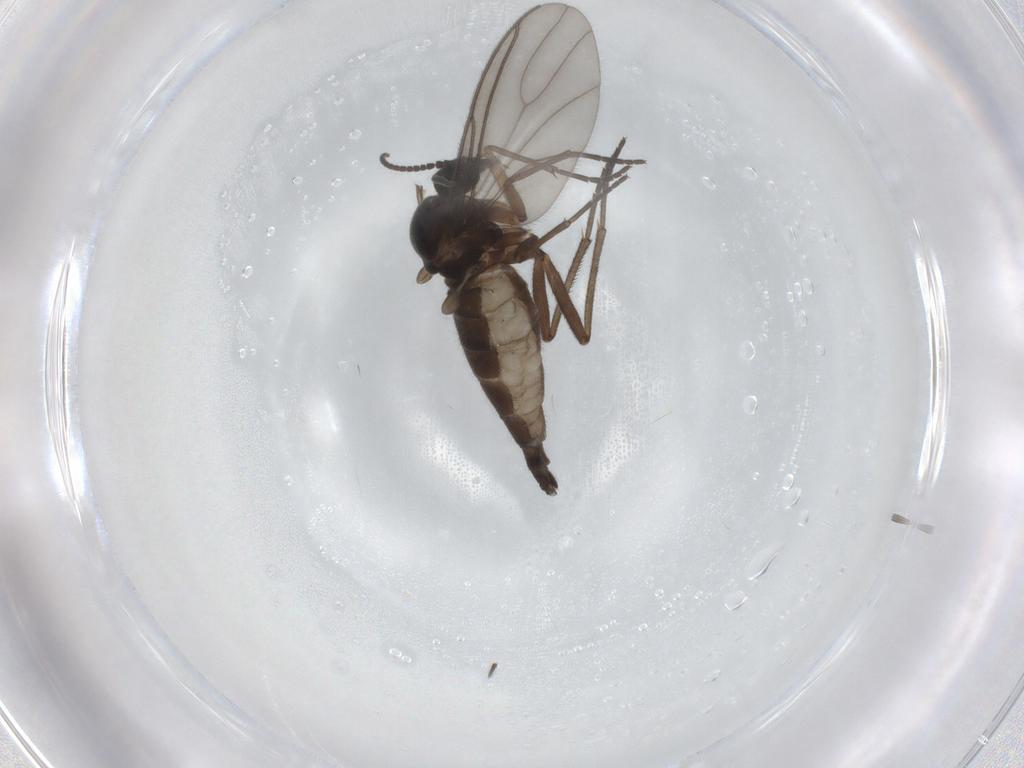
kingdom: Animalia
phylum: Arthropoda
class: Insecta
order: Diptera
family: Sciaridae
